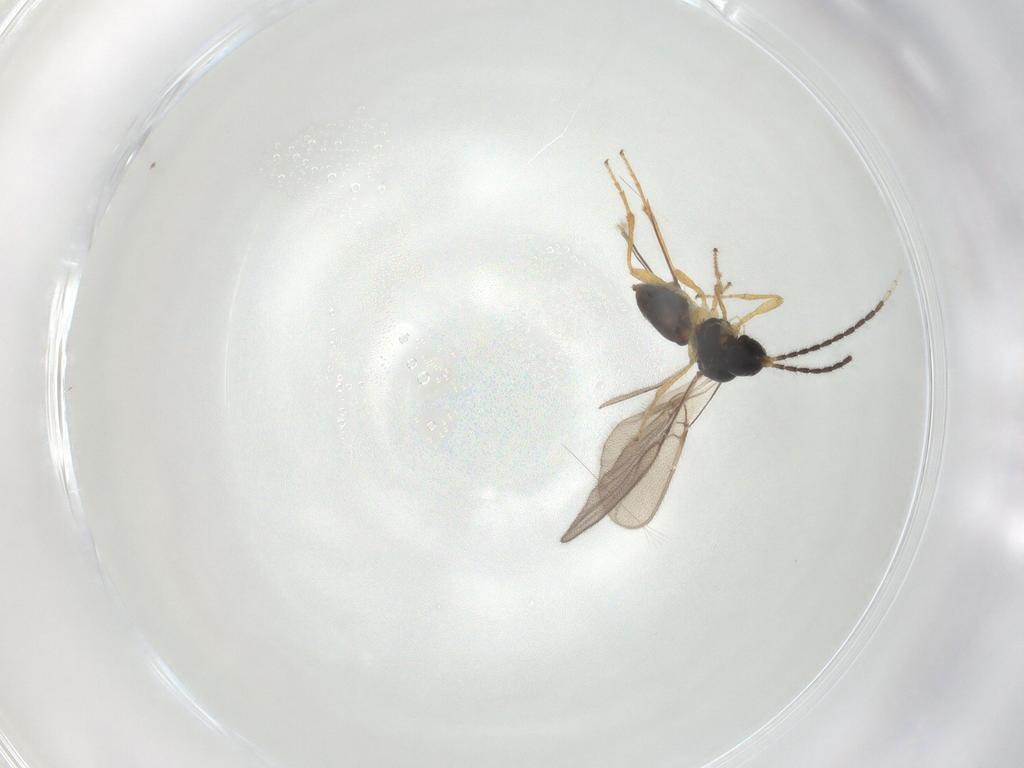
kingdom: Animalia
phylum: Arthropoda
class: Insecta
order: Hymenoptera
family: Braconidae
